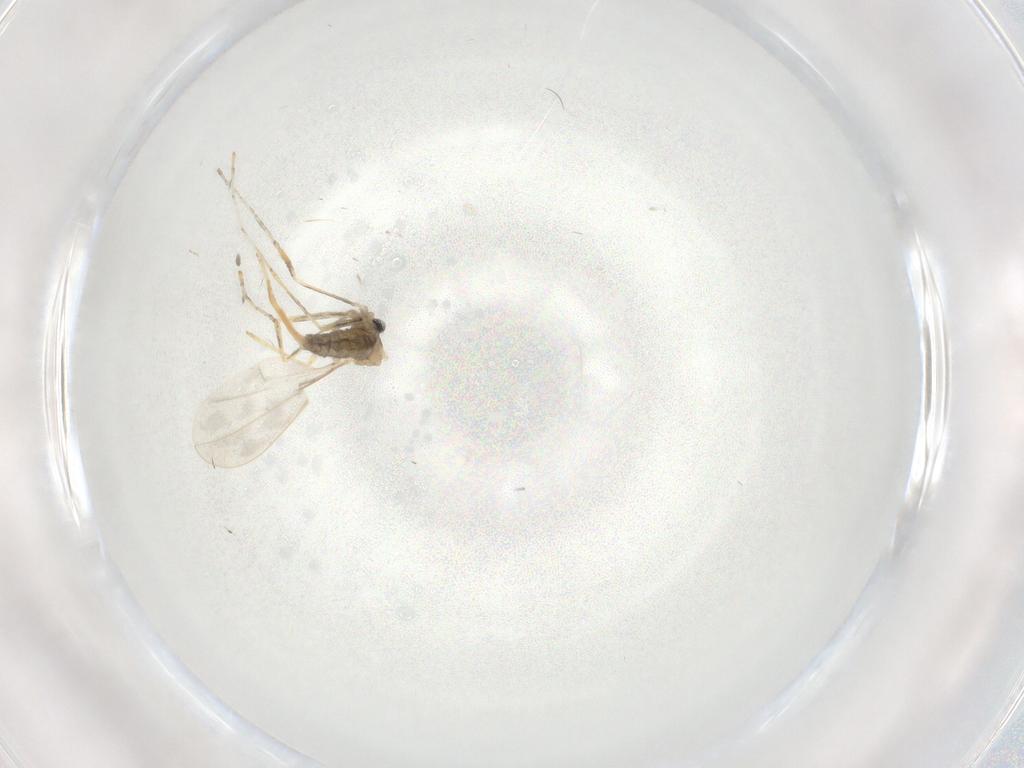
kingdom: Animalia
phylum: Arthropoda
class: Insecta
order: Diptera
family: Cecidomyiidae
